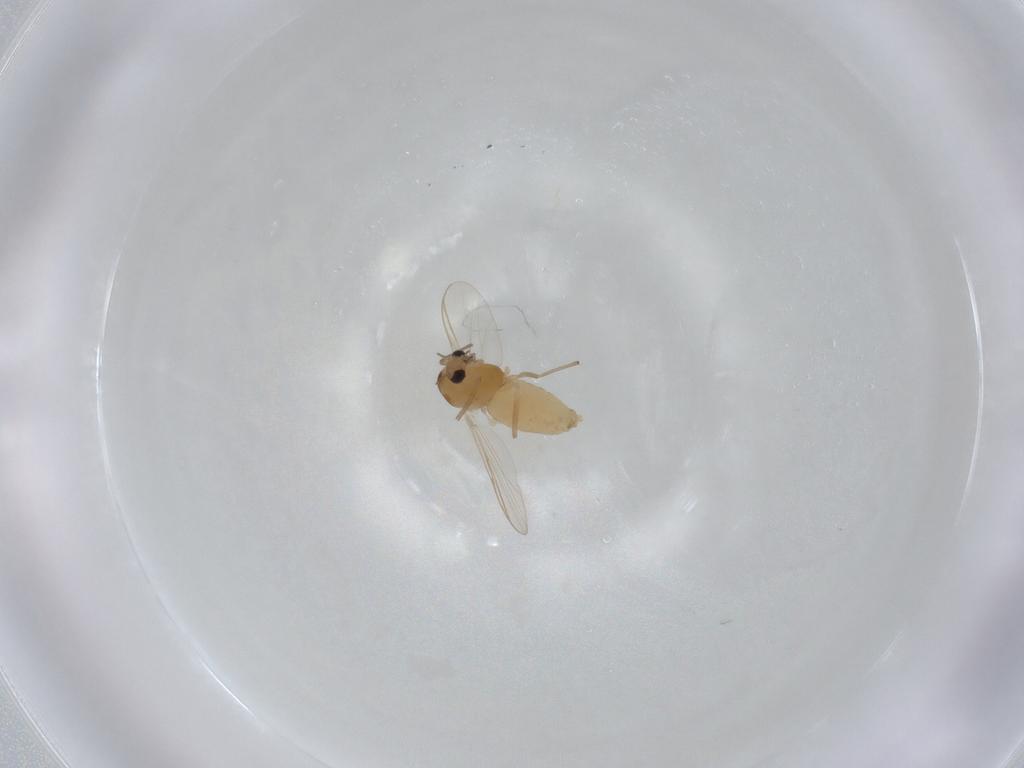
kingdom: Animalia
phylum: Arthropoda
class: Insecta
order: Diptera
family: Chironomidae
